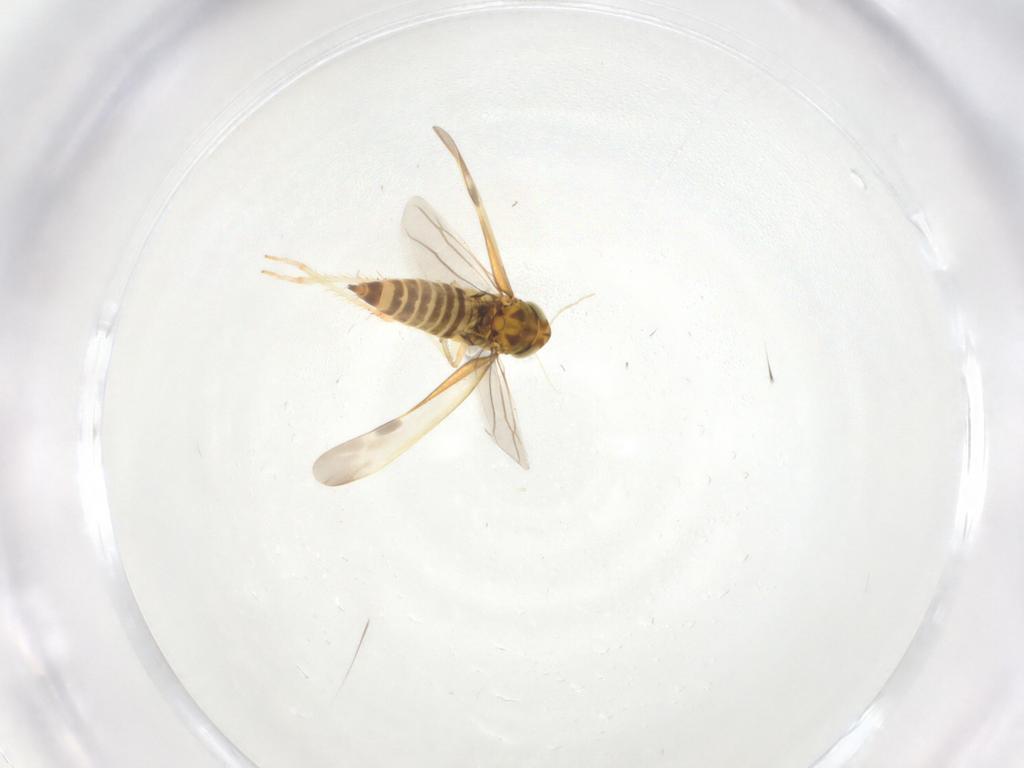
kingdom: Animalia
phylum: Arthropoda
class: Insecta
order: Hemiptera
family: Cicadellidae
